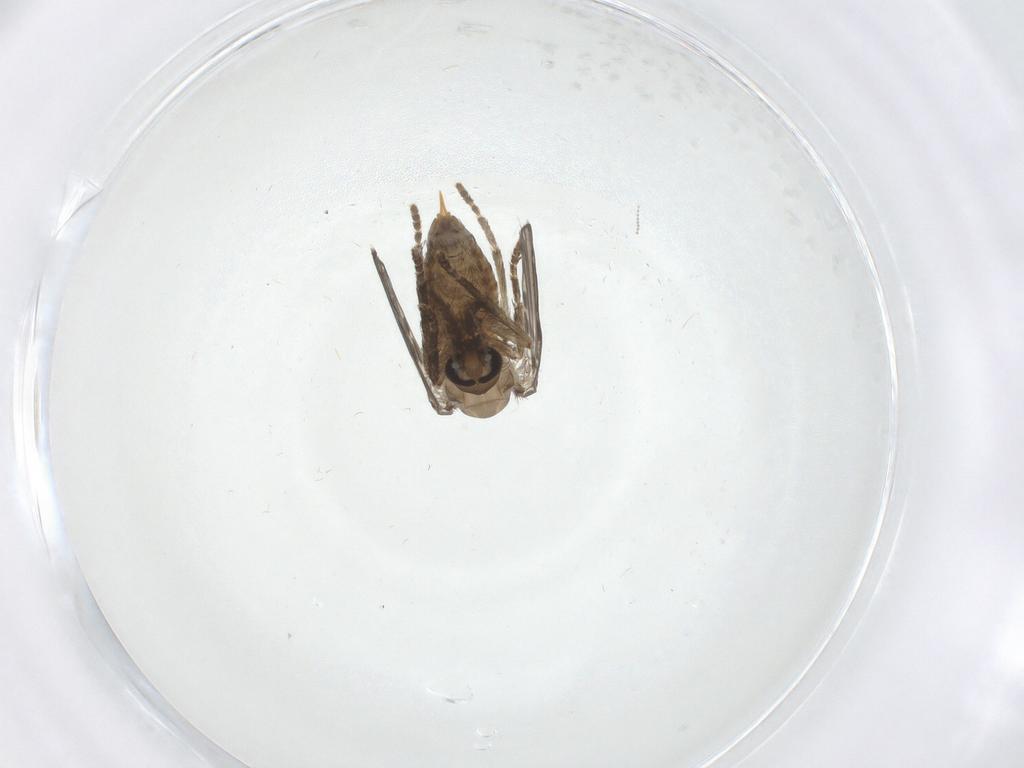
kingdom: Animalia
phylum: Arthropoda
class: Insecta
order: Diptera
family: Psychodidae
